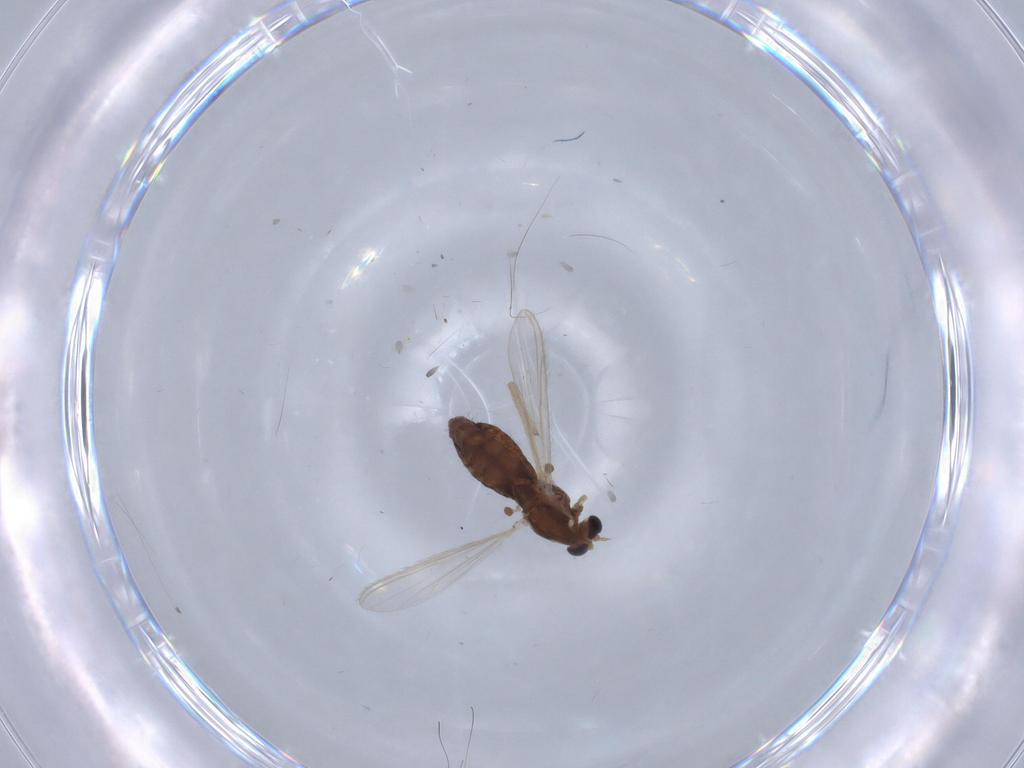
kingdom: Animalia
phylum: Arthropoda
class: Insecta
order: Diptera
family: Chironomidae
